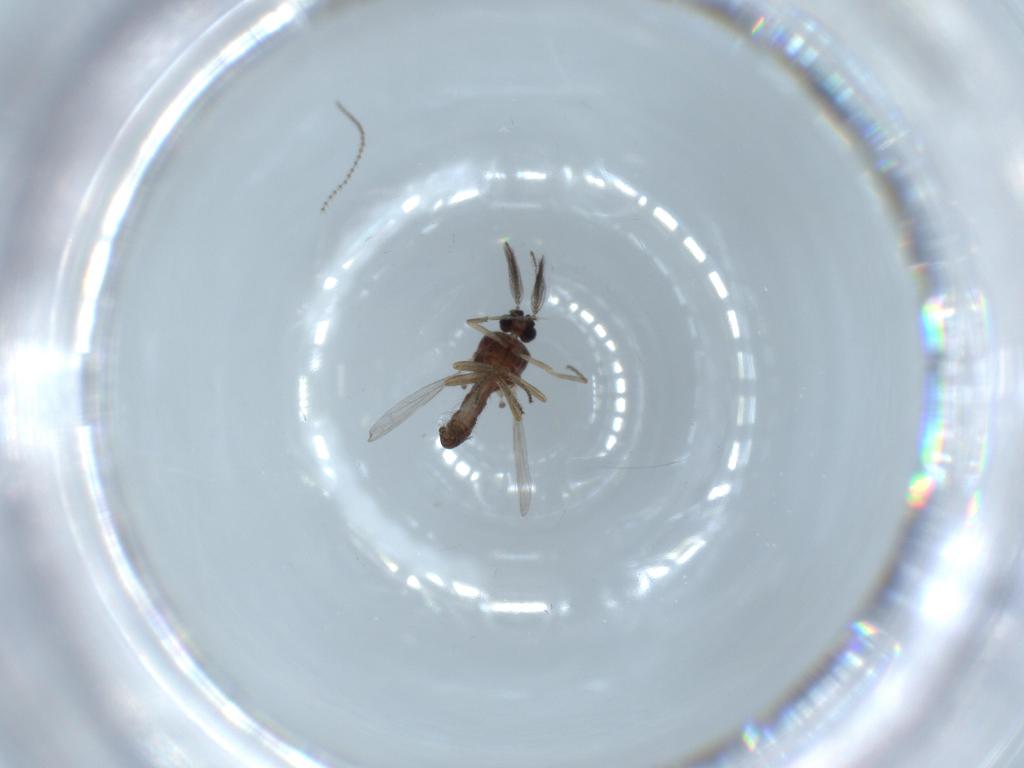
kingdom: Animalia
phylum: Arthropoda
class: Insecta
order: Diptera
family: Ceratopogonidae
